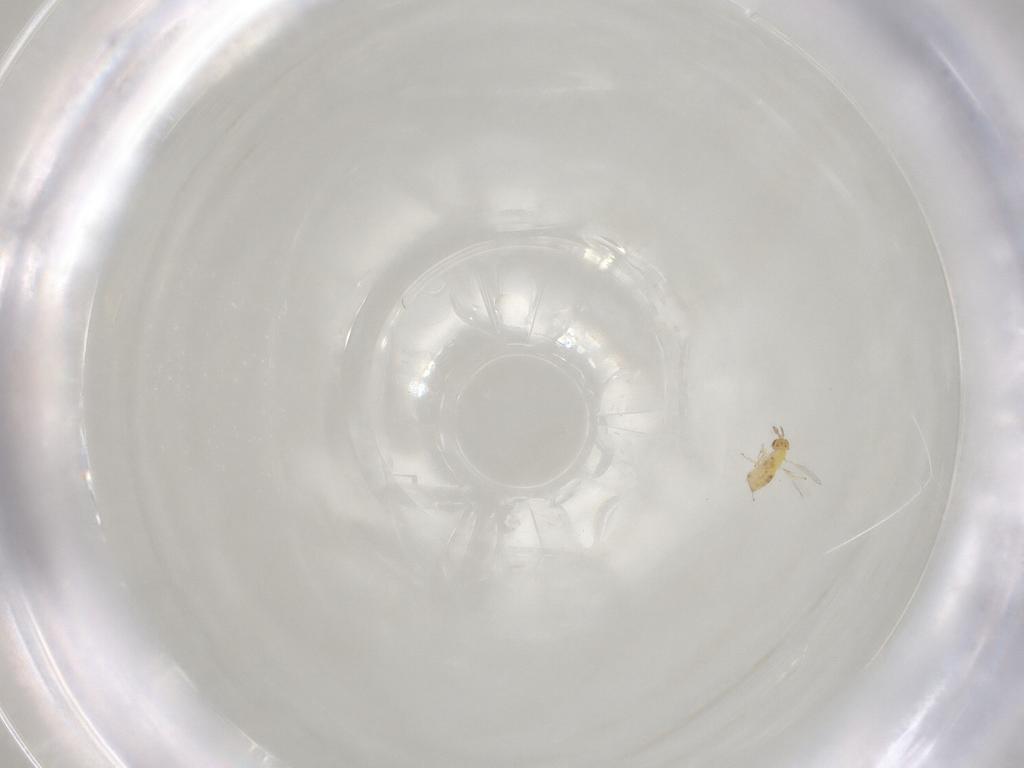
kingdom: Animalia
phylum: Arthropoda
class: Insecta
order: Hymenoptera
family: Trichogrammatidae
